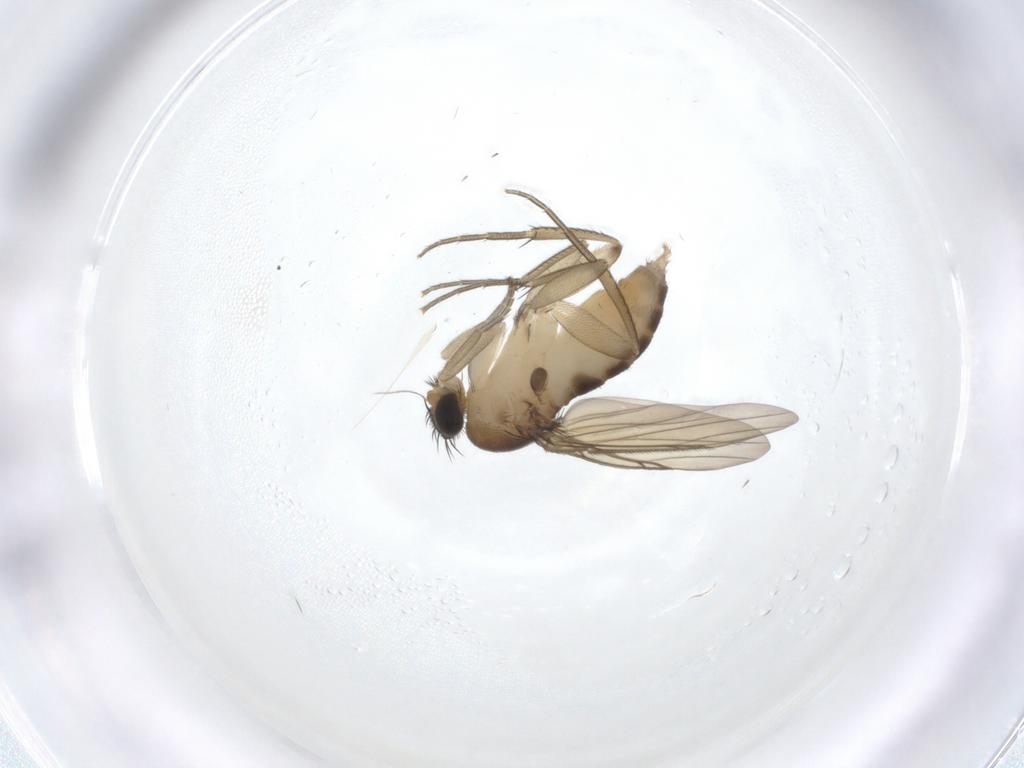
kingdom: Animalia
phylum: Arthropoda
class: Insecta
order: Diptera
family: Phoridae
